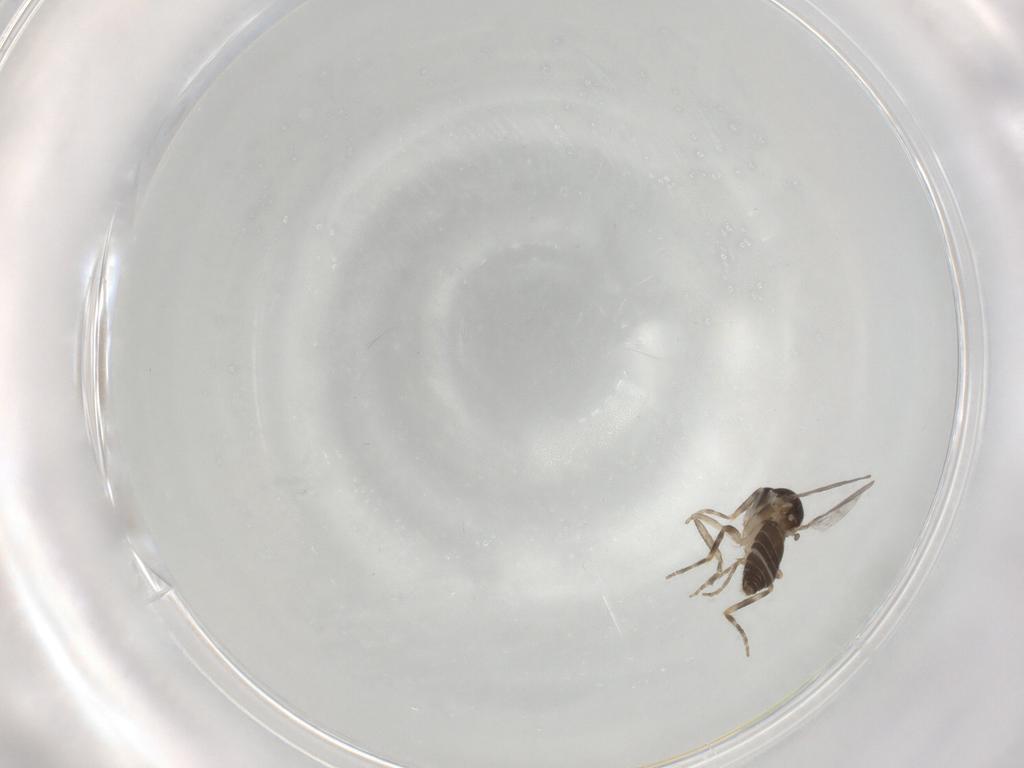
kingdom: Animalia
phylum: Arthropoda
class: Insecta
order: Diptera
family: Ceratopogonidae
